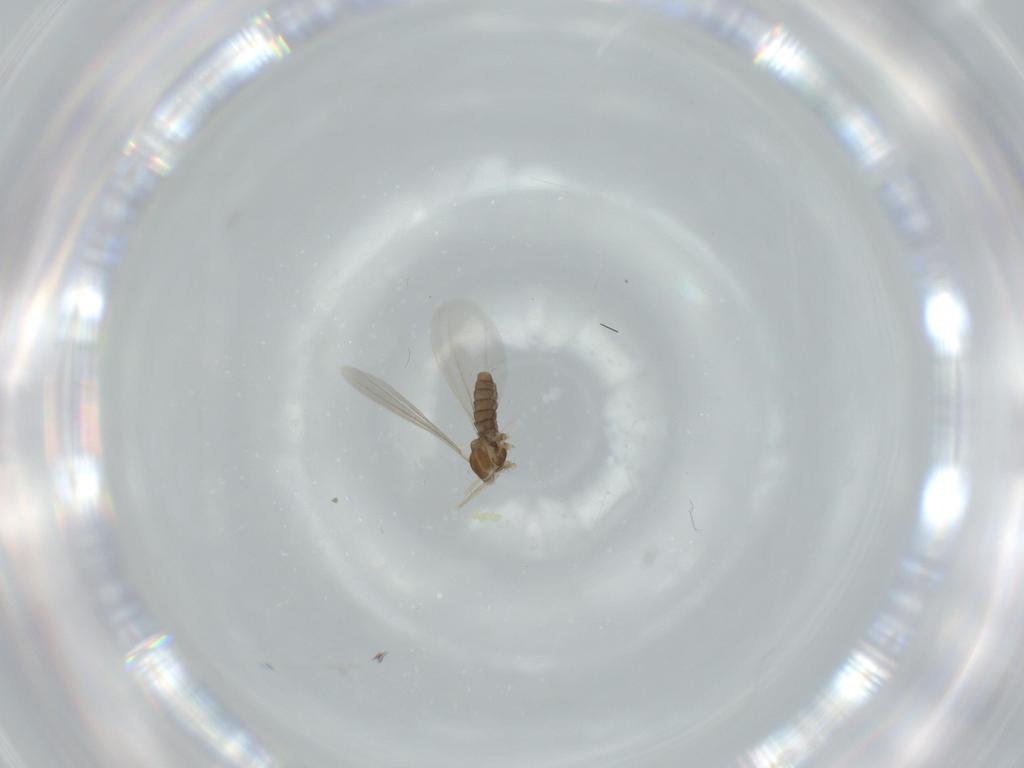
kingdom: Animalia
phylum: Arthropoda
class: Insecta
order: Diptera
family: Cecidomyiidae
